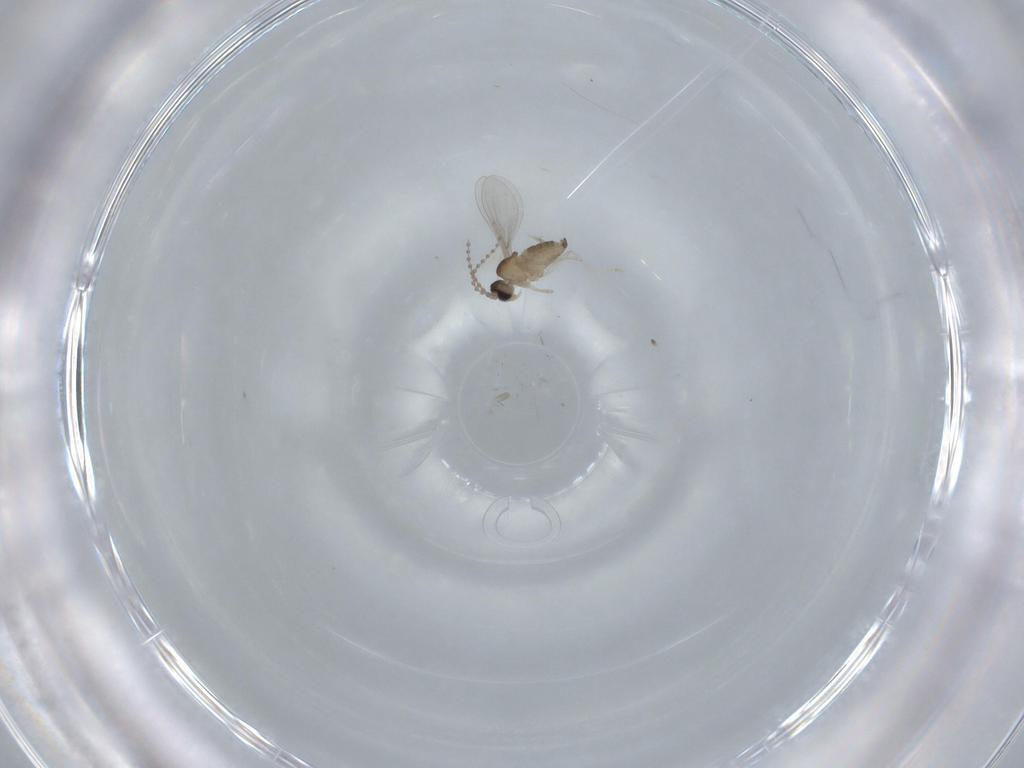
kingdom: Animalia
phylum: Arthropoda
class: Insecta
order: Diptera
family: Cecidomyiidae
